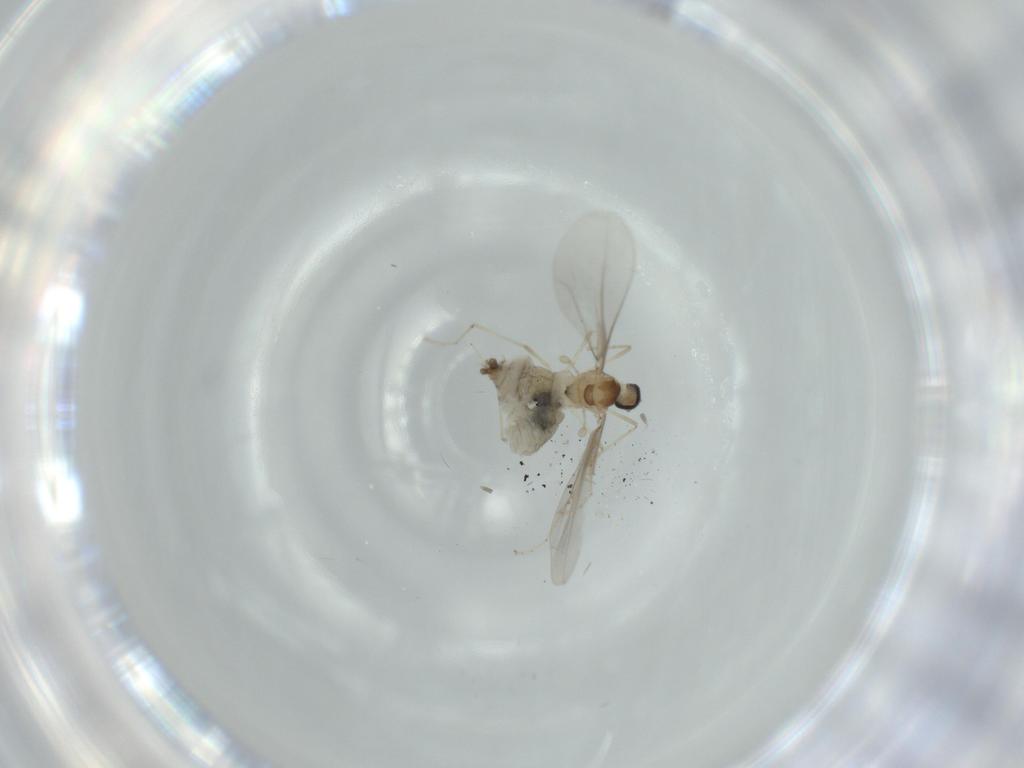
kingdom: Animalia
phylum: Arthropoda
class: Insecta
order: Diptera
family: Cecidomyiidae
